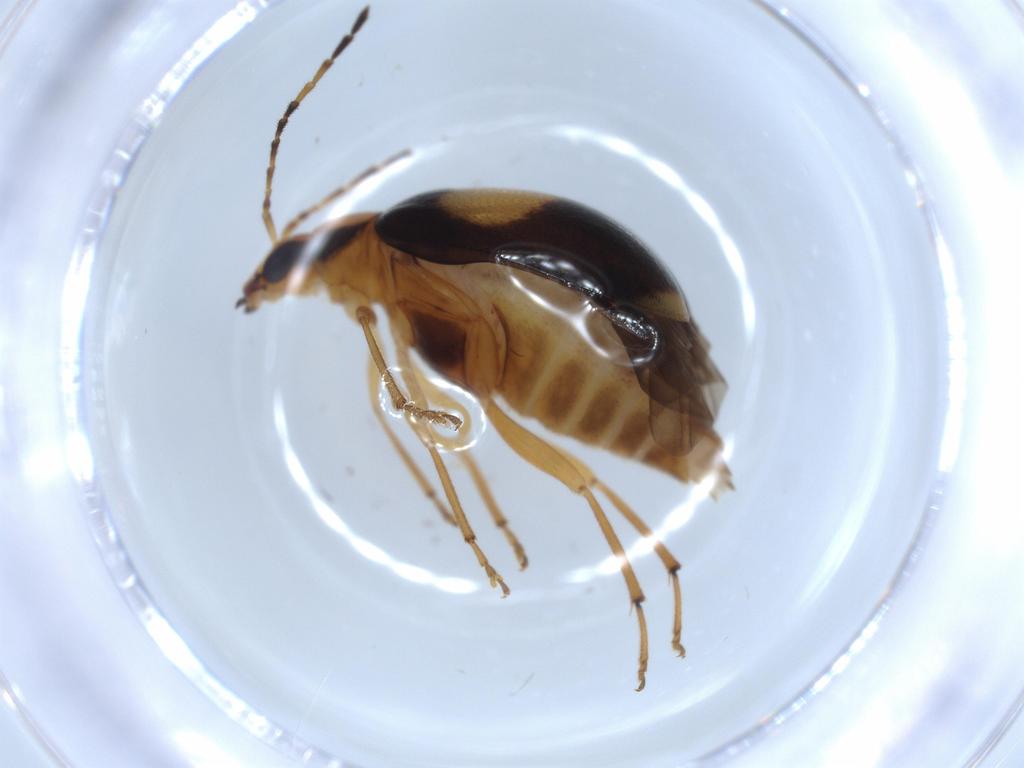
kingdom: Animalia
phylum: Arthropoda
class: Insecta
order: Coleoptera
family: Chrysomelidae
